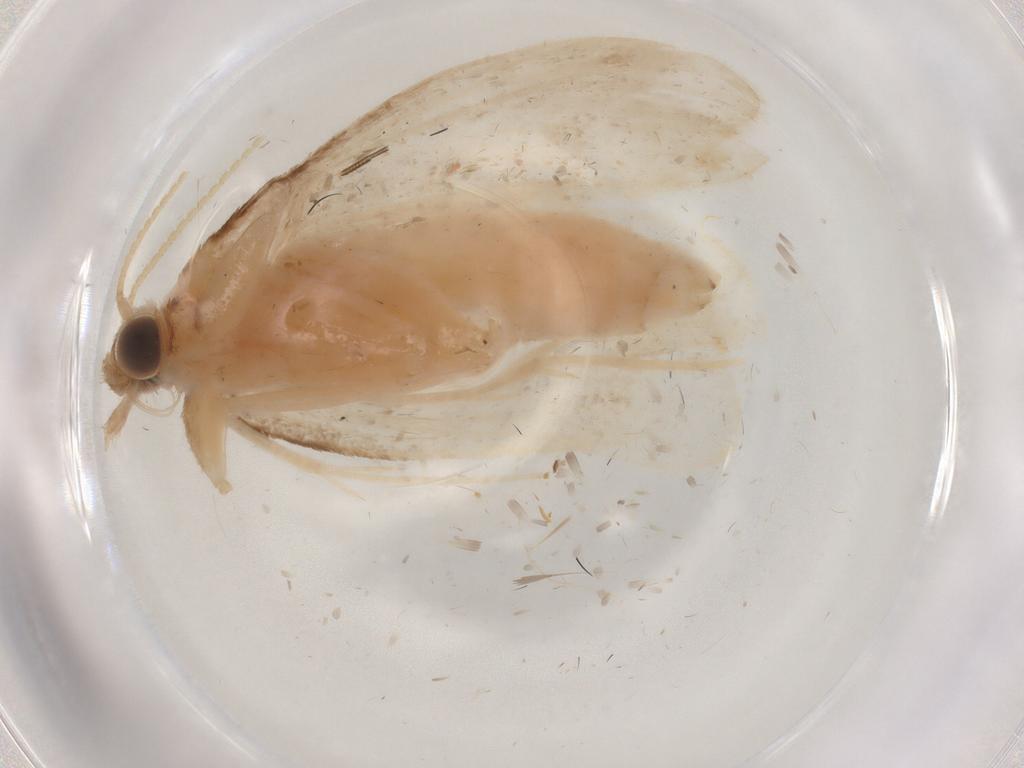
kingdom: Animalia
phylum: Arthropoda
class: Insecta
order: Lepidoptera
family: Crambidae
